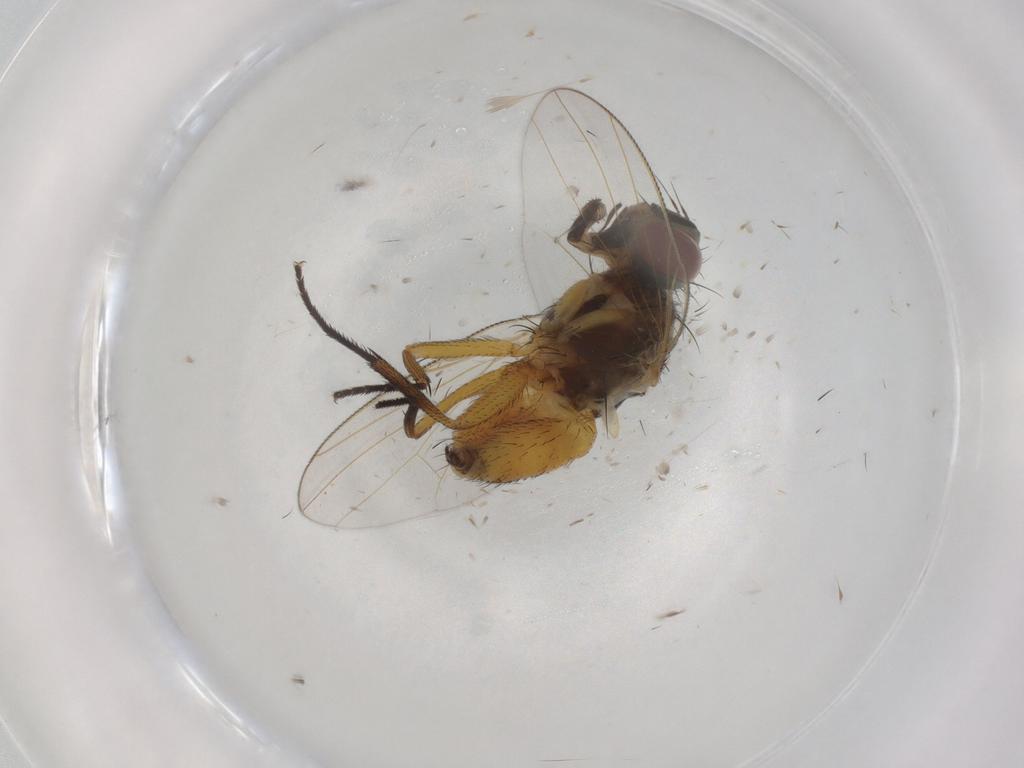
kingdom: Animalia
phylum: Arthropoda
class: Insecta
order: Diptera
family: Muscidae
